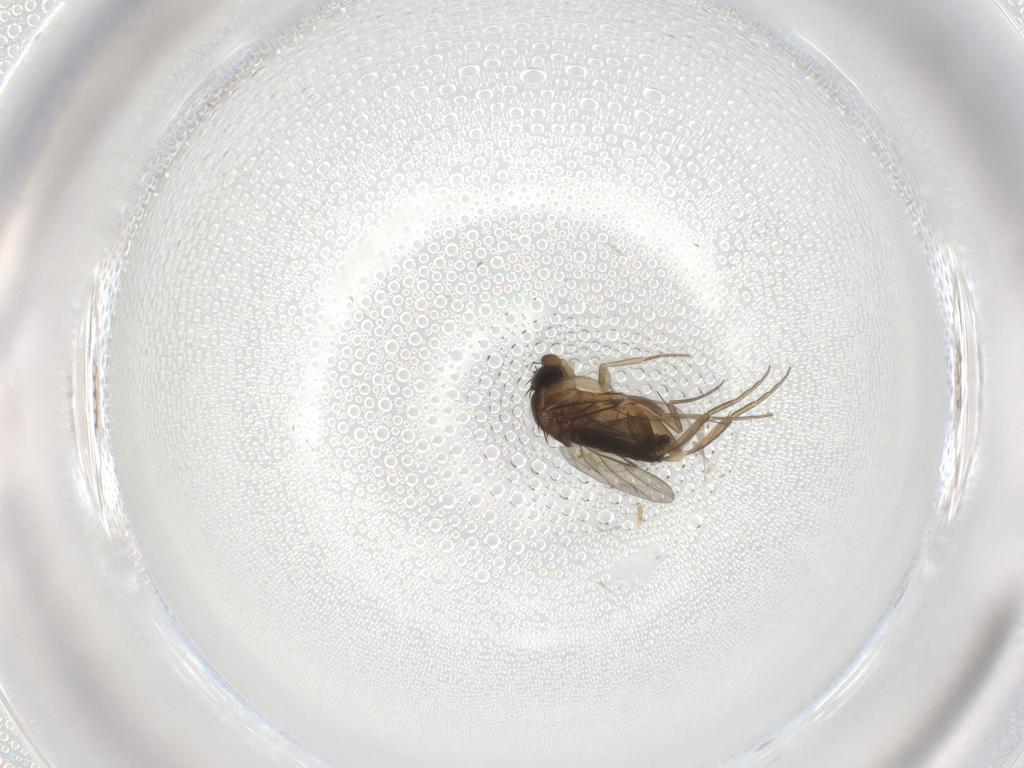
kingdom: Animalia
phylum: Arthropoda
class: Insecta
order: Diptera
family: Phoridae
